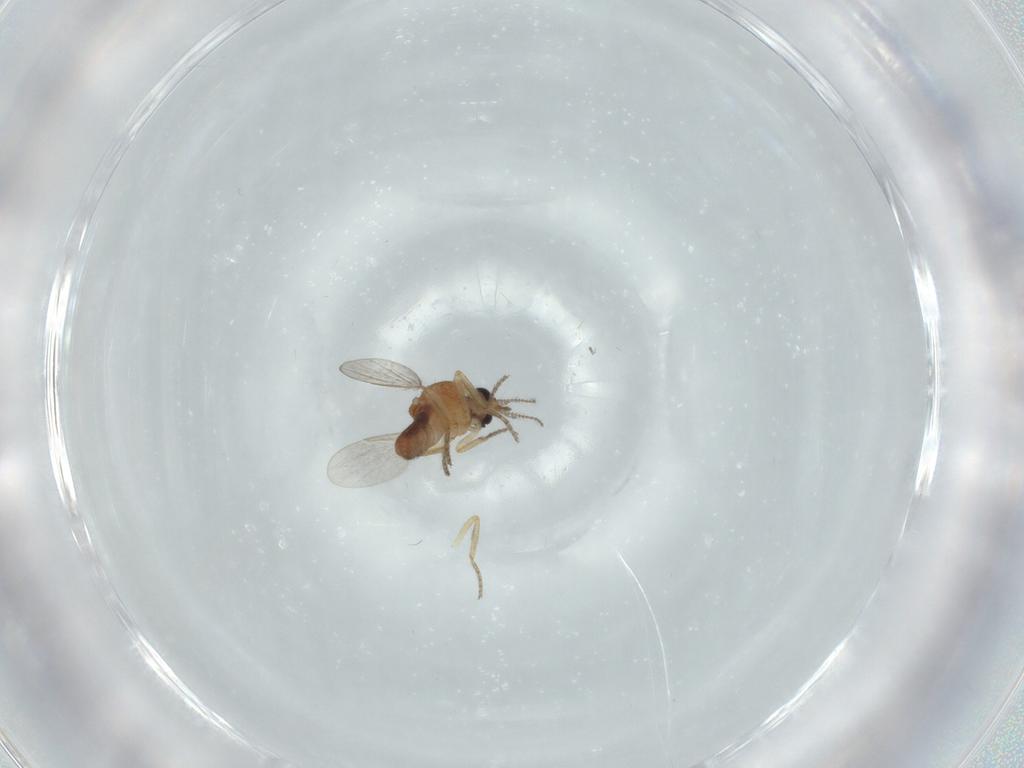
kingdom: Animalia
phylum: Arthropoda
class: Insecta
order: Diptera
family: Ceratopogonidae
